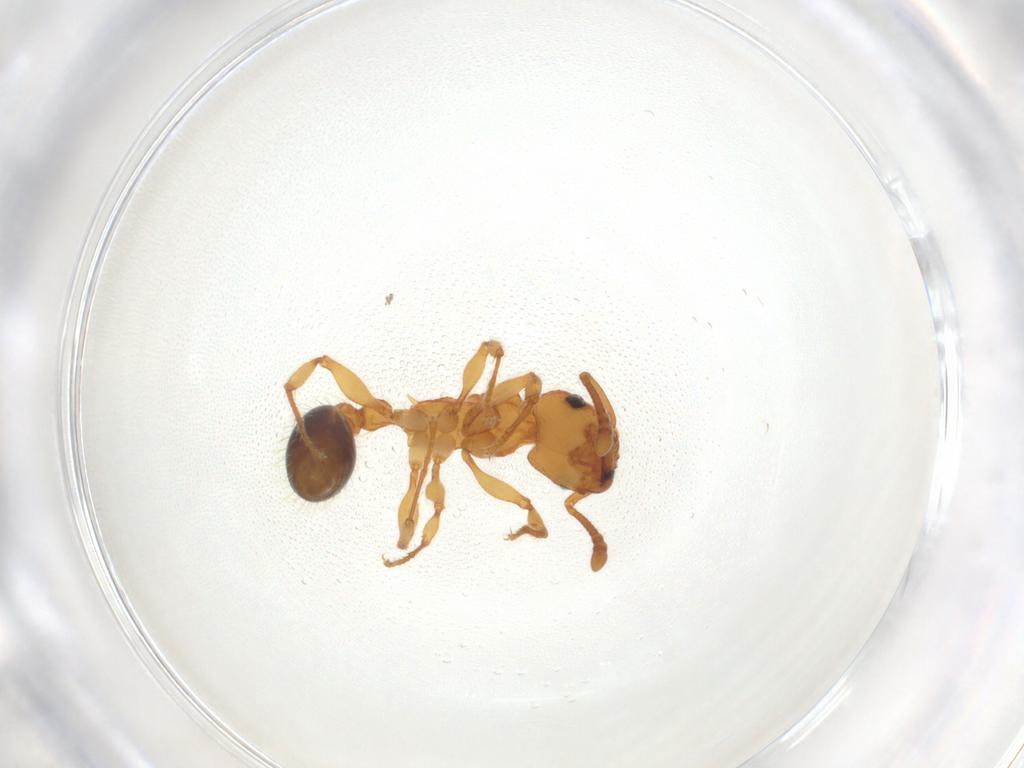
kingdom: Animalia
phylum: Arthropoda
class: Insecta
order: Hymenoptera
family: Formicidae
